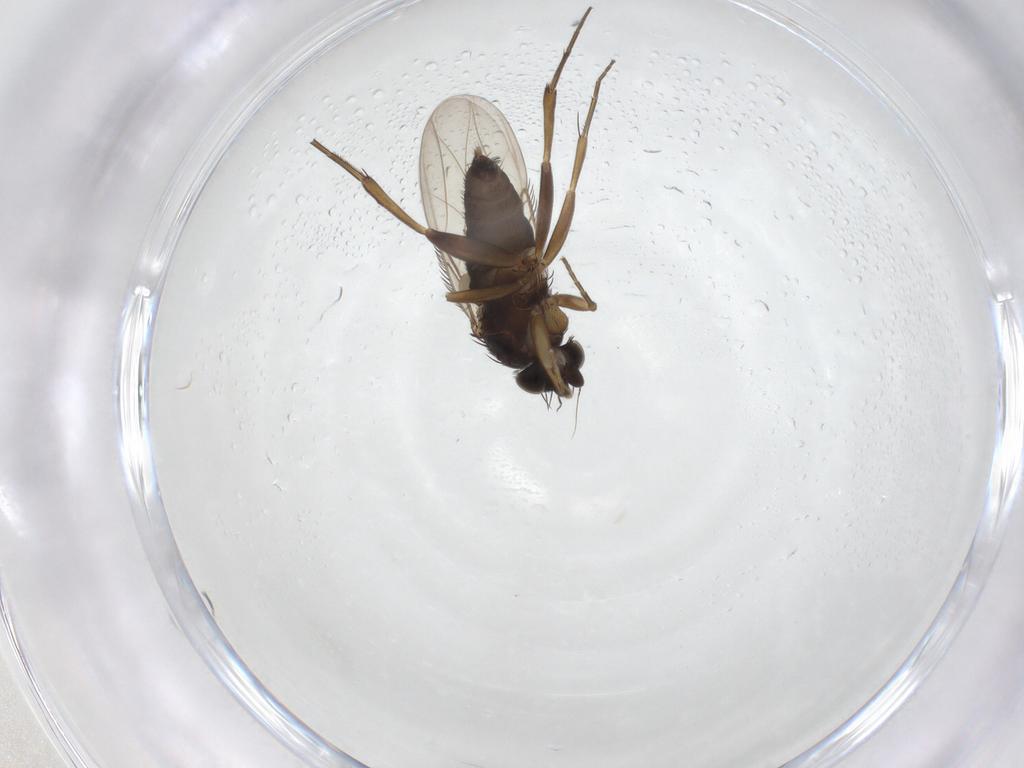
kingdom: Animalia
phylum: Arthropoda
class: Insecta
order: Diptera
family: Phoridae
